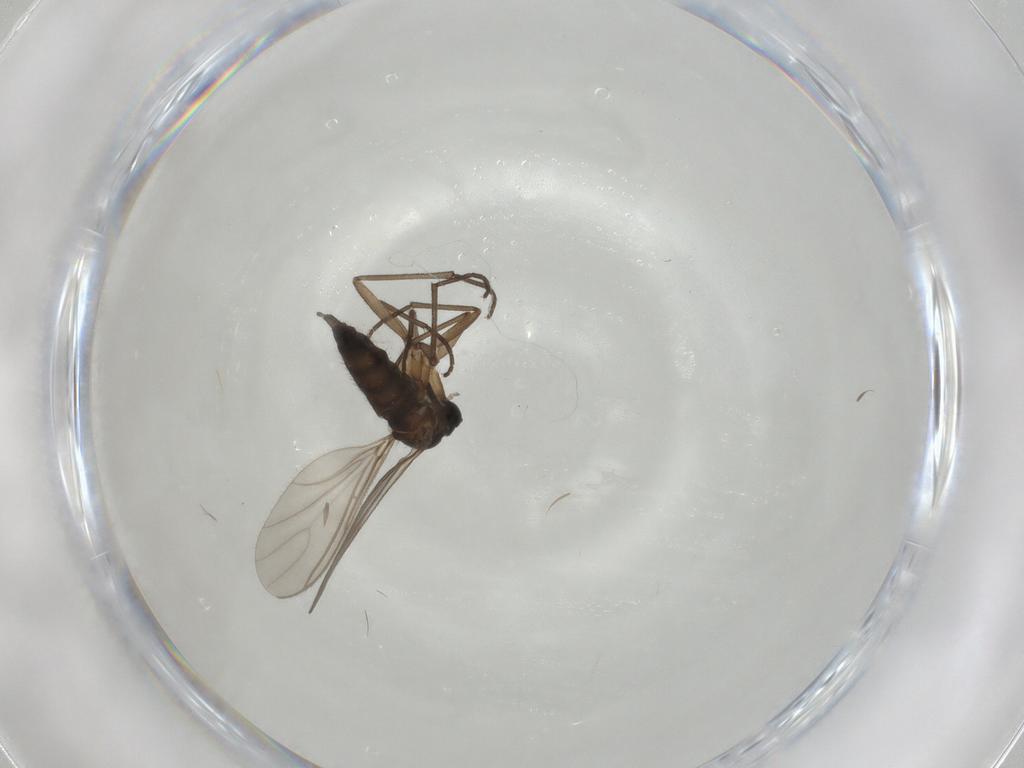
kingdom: Animalia
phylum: Arthropoda
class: Insecta
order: Diptera
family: Sciaridae
